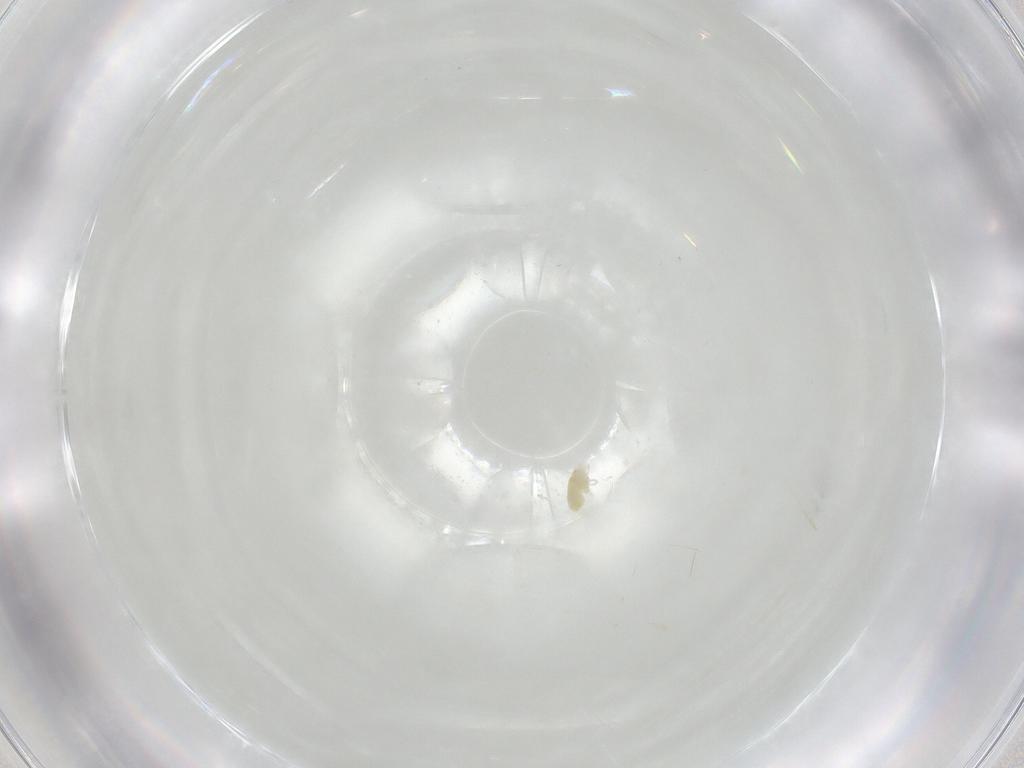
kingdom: Animalia
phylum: Arthropoda
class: Arachnida
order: Trombidiformes
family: Eupodidae
